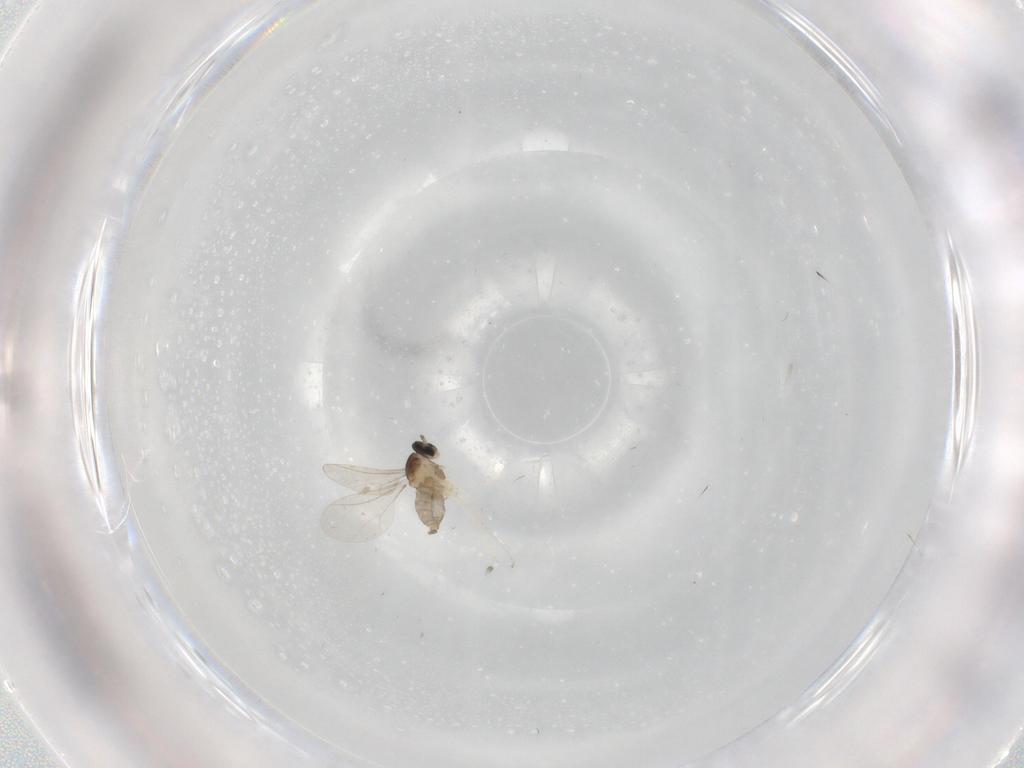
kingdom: Animalia
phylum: Arthropoda
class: Insecta
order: Diptera
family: Cecidomyiidae
